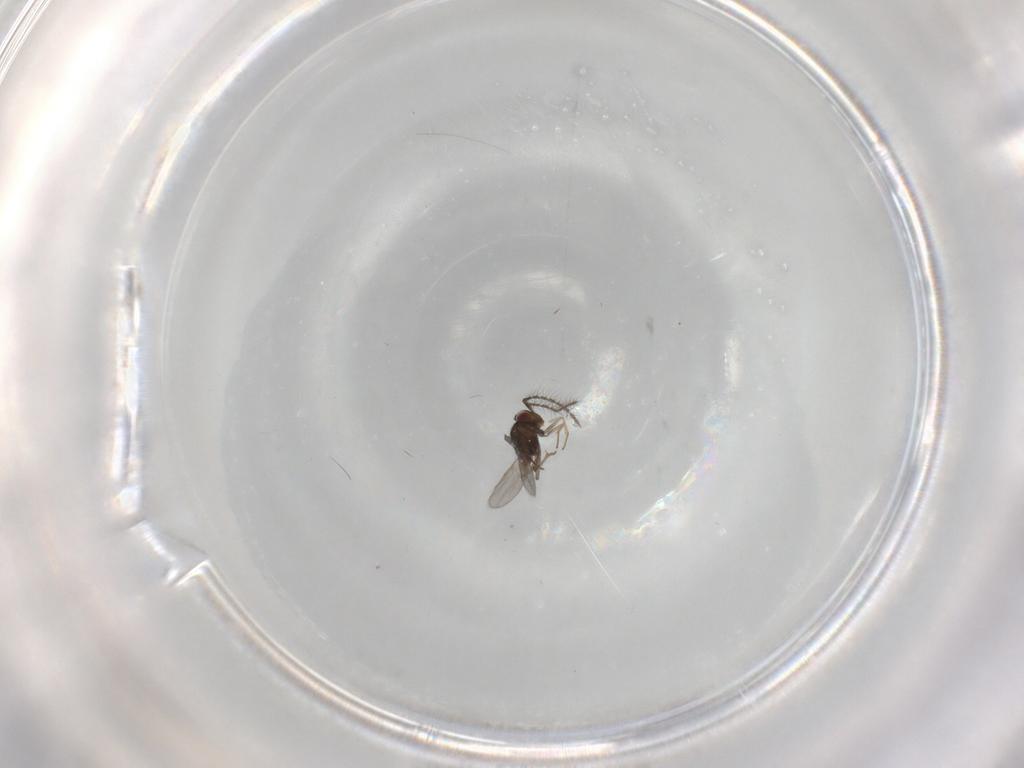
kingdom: Animalia
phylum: Arthropoda
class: Insecta
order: Hymenoptera
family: Encyrtidae
